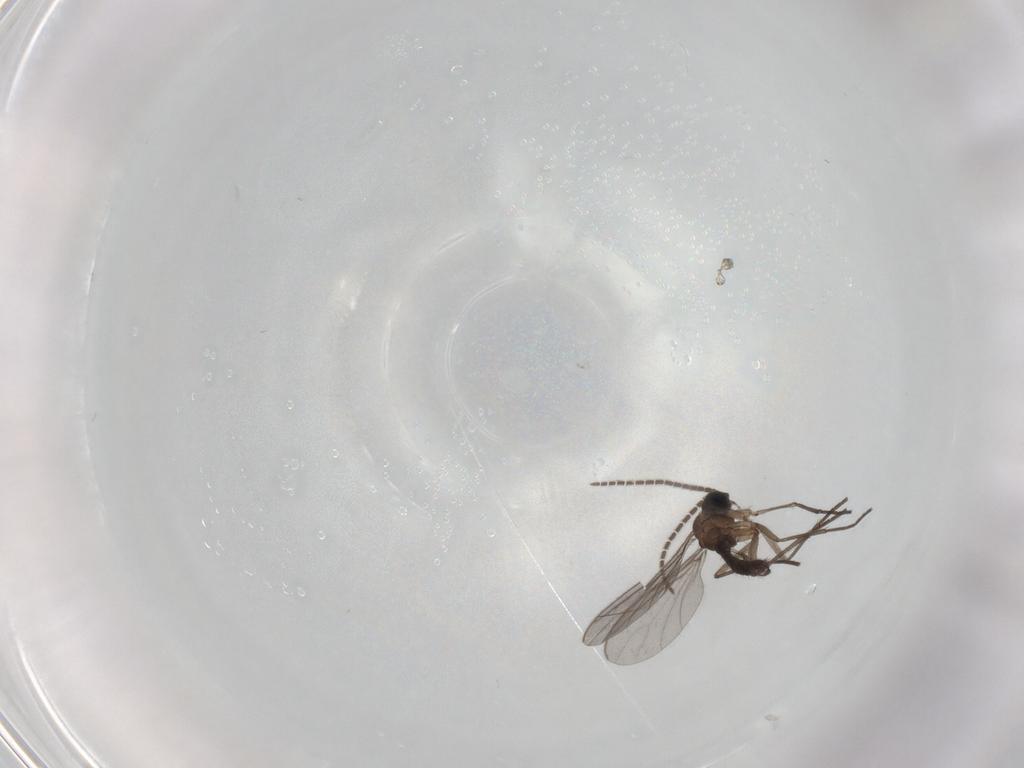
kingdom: Animalia
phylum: Arthropoda
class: Insecta
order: Diptera
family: Sciaridae
